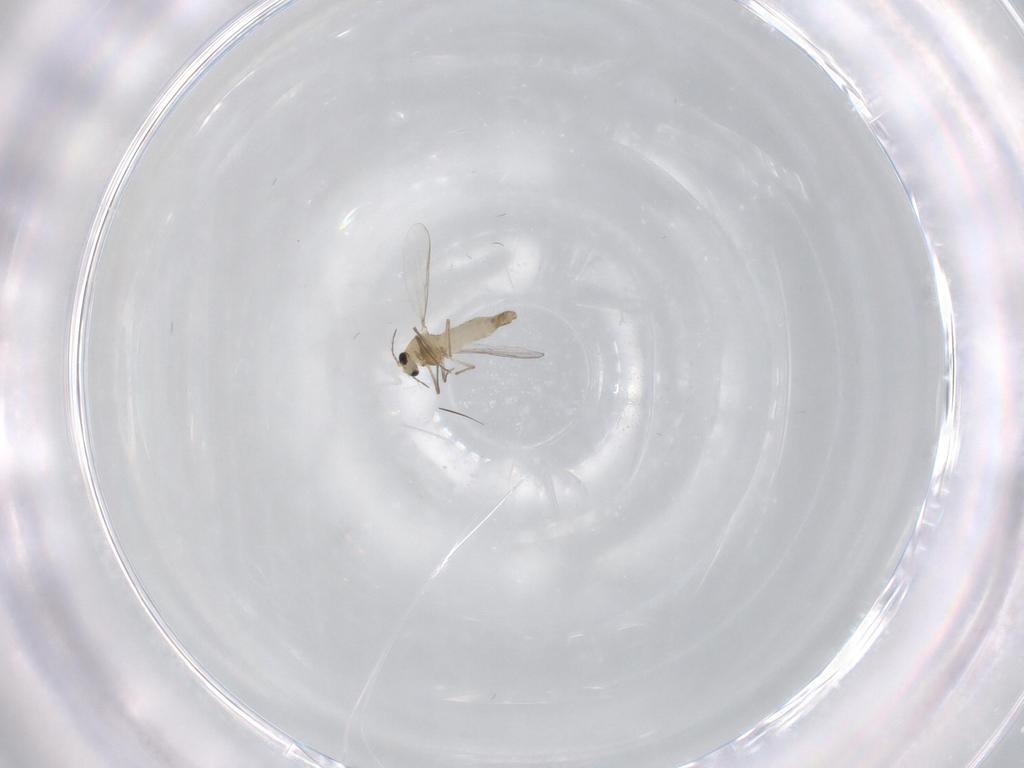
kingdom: Animalia
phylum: Arthropoda
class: Insecta
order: Diptera
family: Chironomidae
